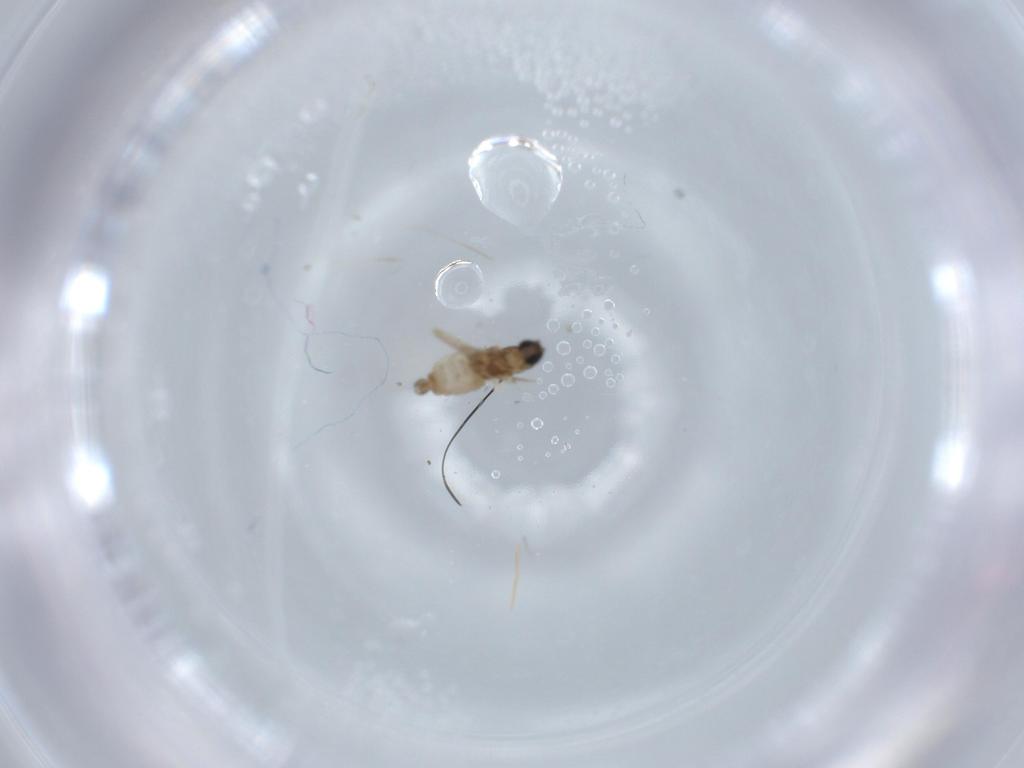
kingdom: Animalia
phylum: Arthropoda
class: Insecta
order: Diptera
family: Cecidomyiidae
